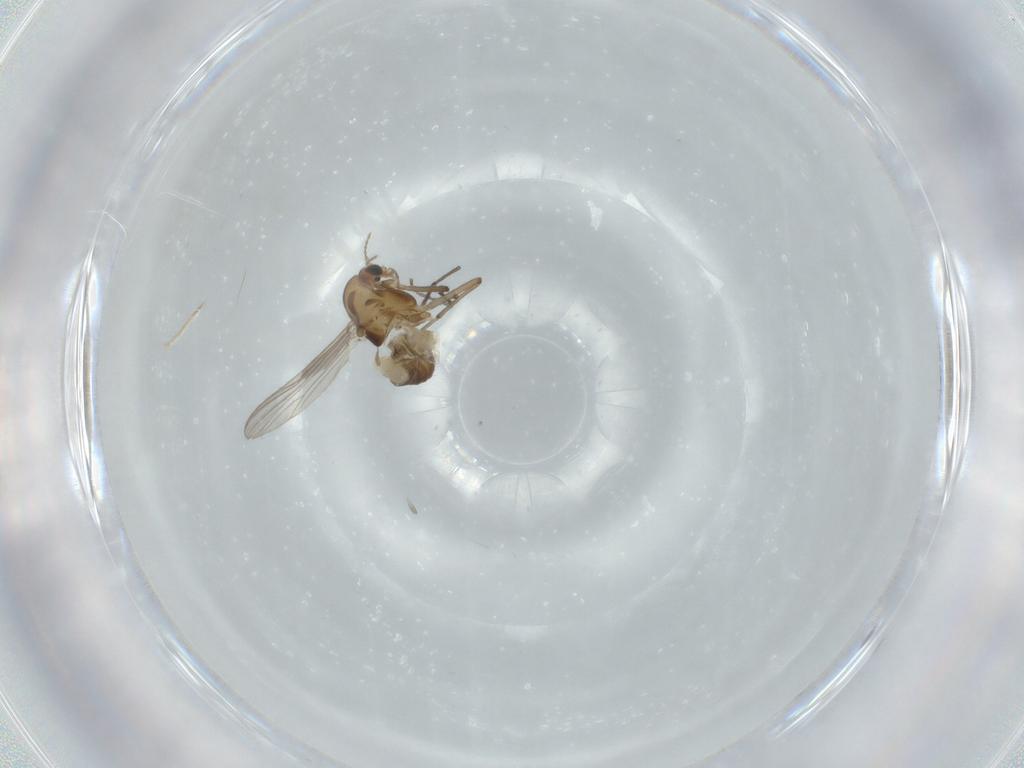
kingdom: Animalia
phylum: Arthropoda
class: Insecta
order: Diptera
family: Chironomidae
